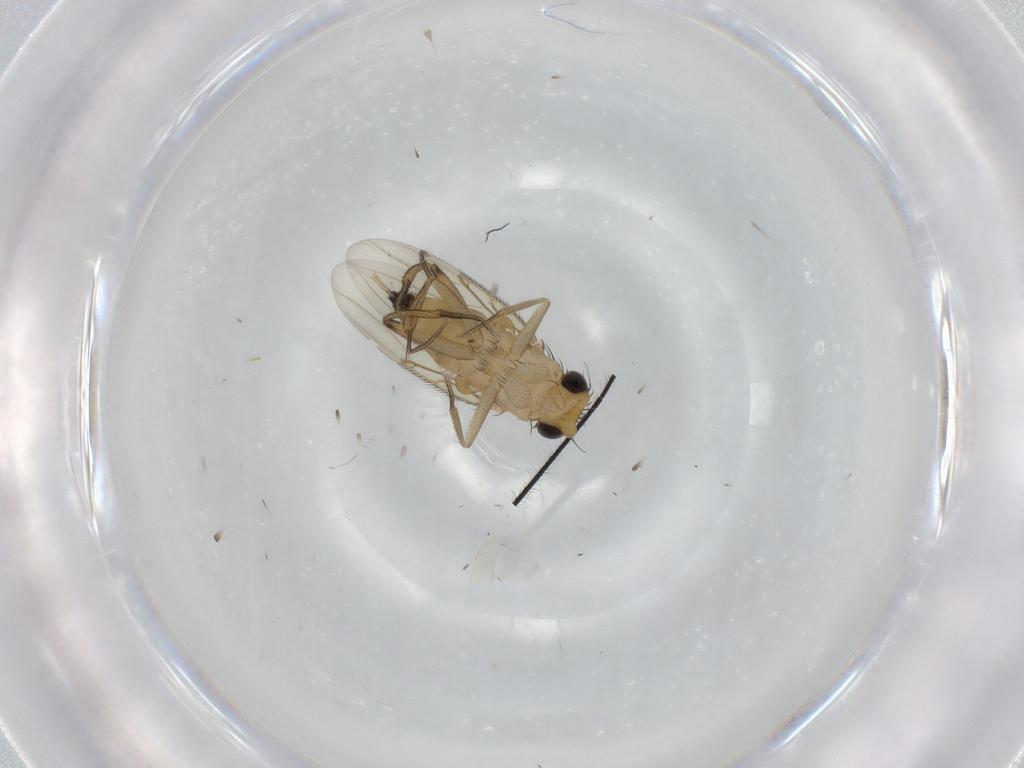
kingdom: Animalia
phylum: Arthropoda
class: Insecta
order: Diptera
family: Phoridae
